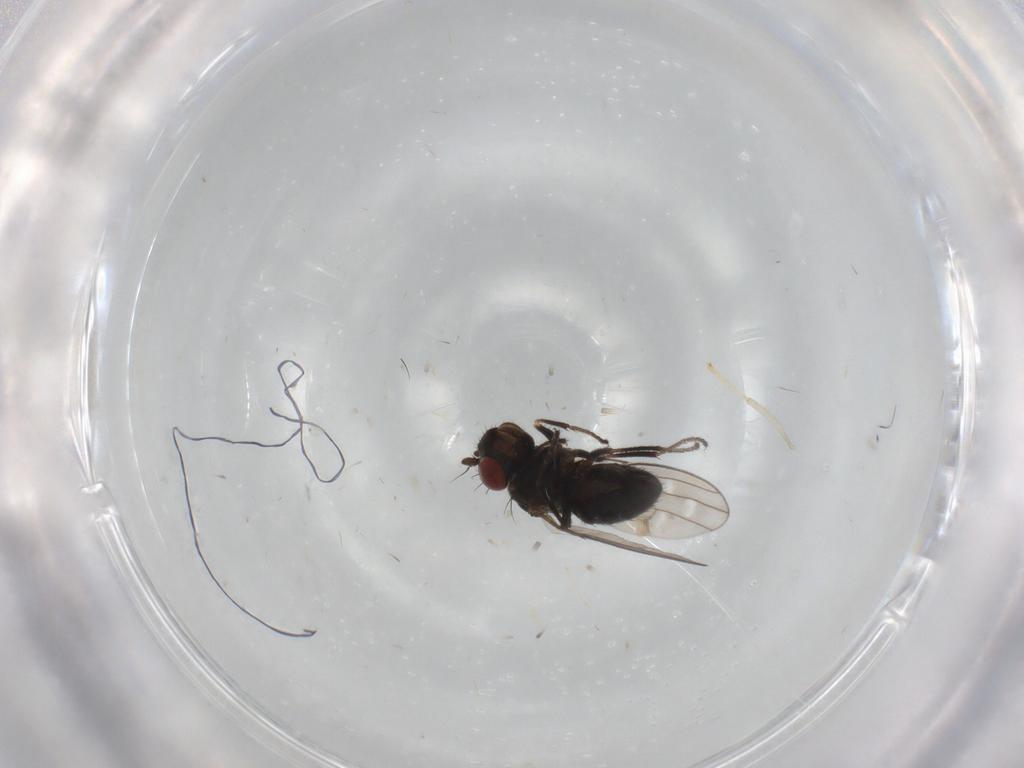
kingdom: Animalia
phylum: Arthropoda
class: Insecta
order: Diptera
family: Ephydridae
